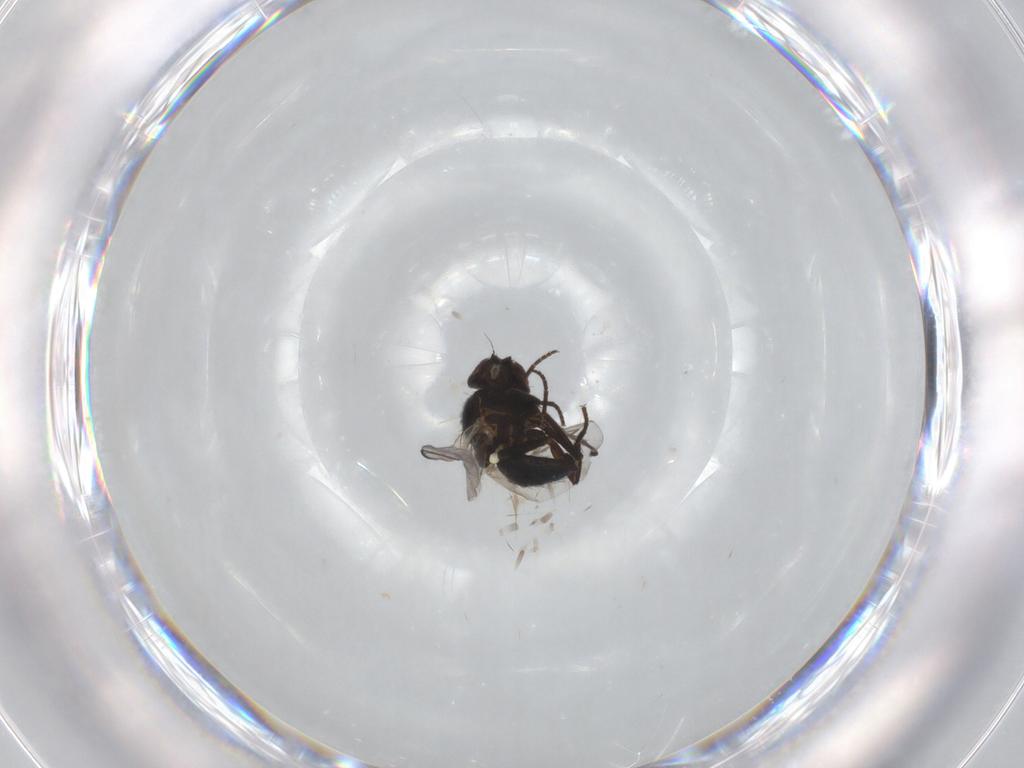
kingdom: Animalia
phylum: Arthropoda
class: Insecta
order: Diptera
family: Agromyzidae
